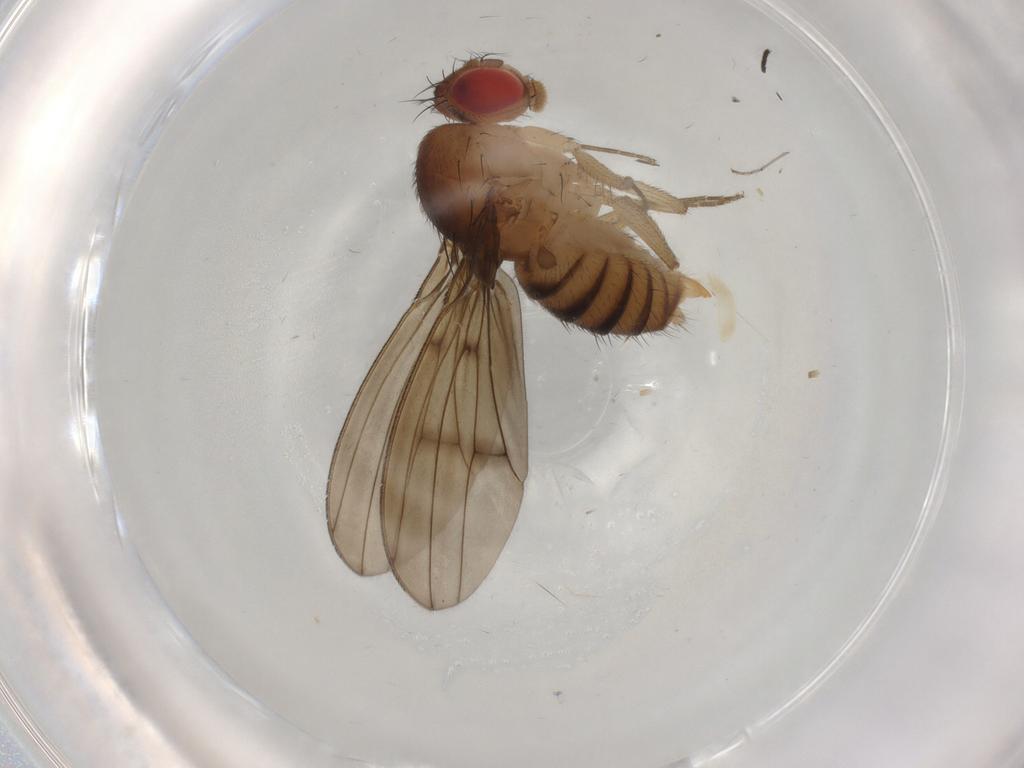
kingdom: Animalia
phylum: Arthropoda
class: Insecta
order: Diptera
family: Drosophilidae
